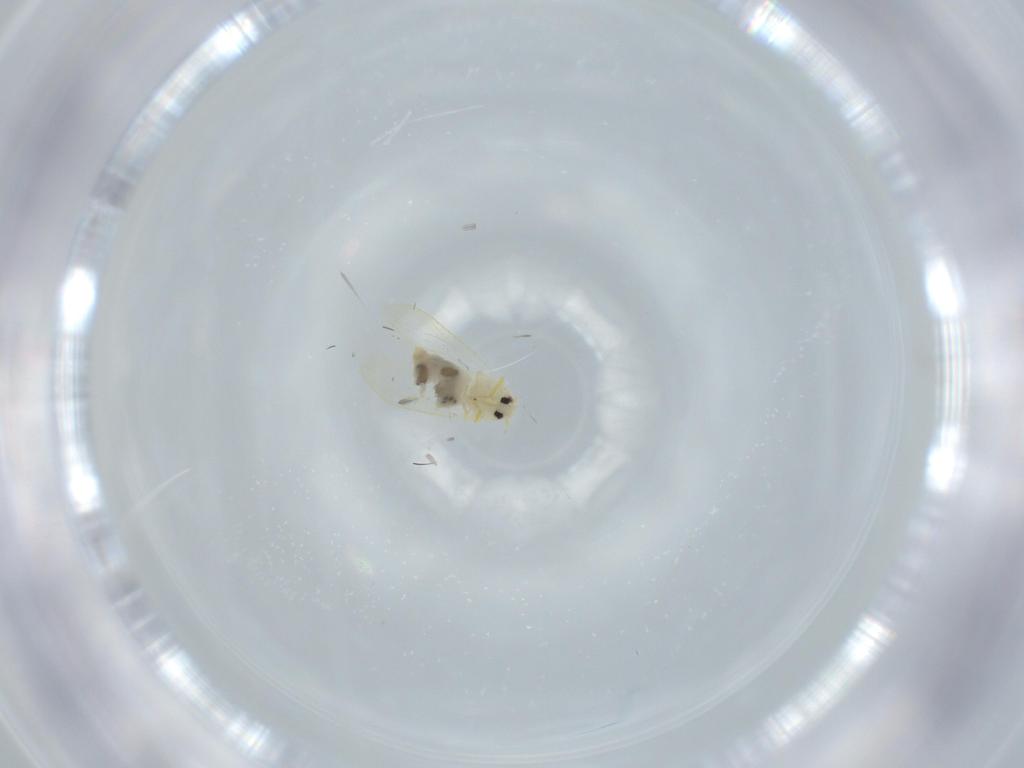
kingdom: Animalia
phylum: Arthropoda
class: Insecta
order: Hemiptera
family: Aleyrodidae
